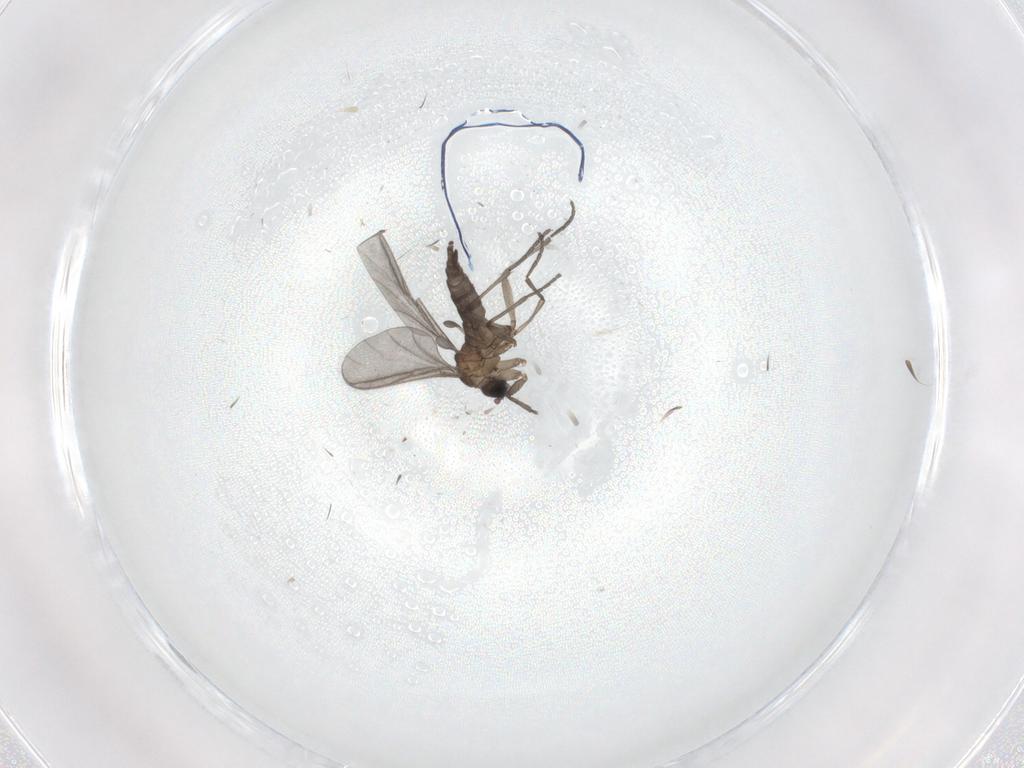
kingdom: Animalia
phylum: Arthropoda
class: Insecta
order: Diptera
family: Sciaridae
